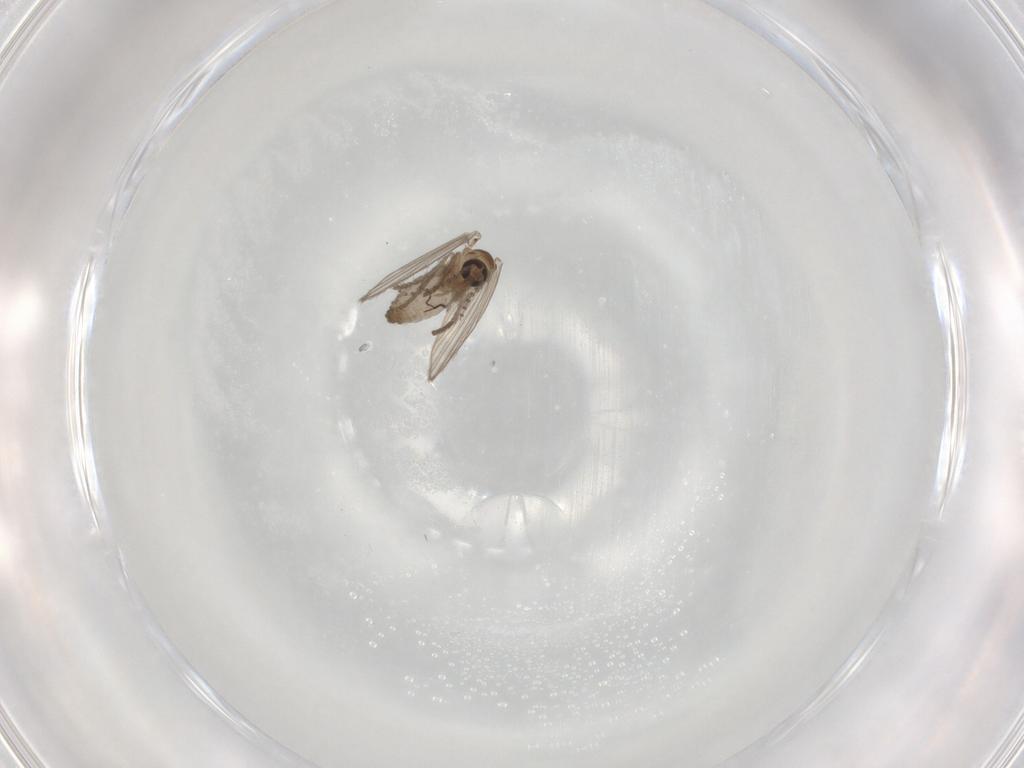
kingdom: Animalia
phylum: Arthropoda
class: Insecta
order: Diptera
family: Psychodidae
